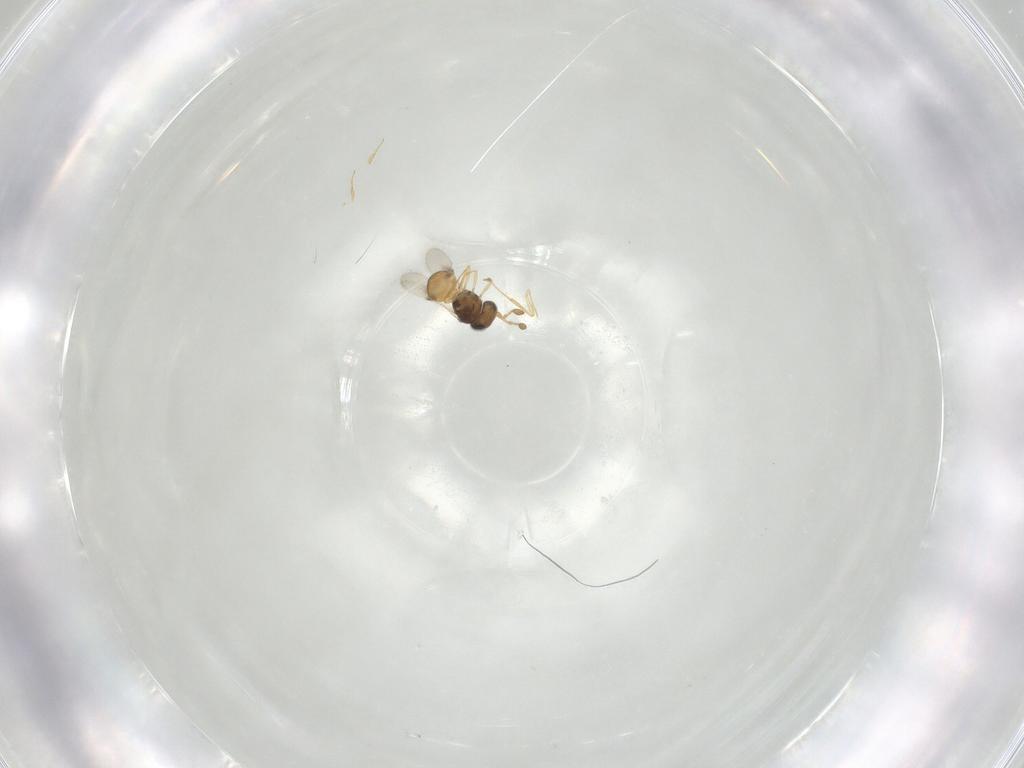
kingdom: Animalia
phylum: Arthropoda
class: Insecta
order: Hymenoptera
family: Scelionidae
